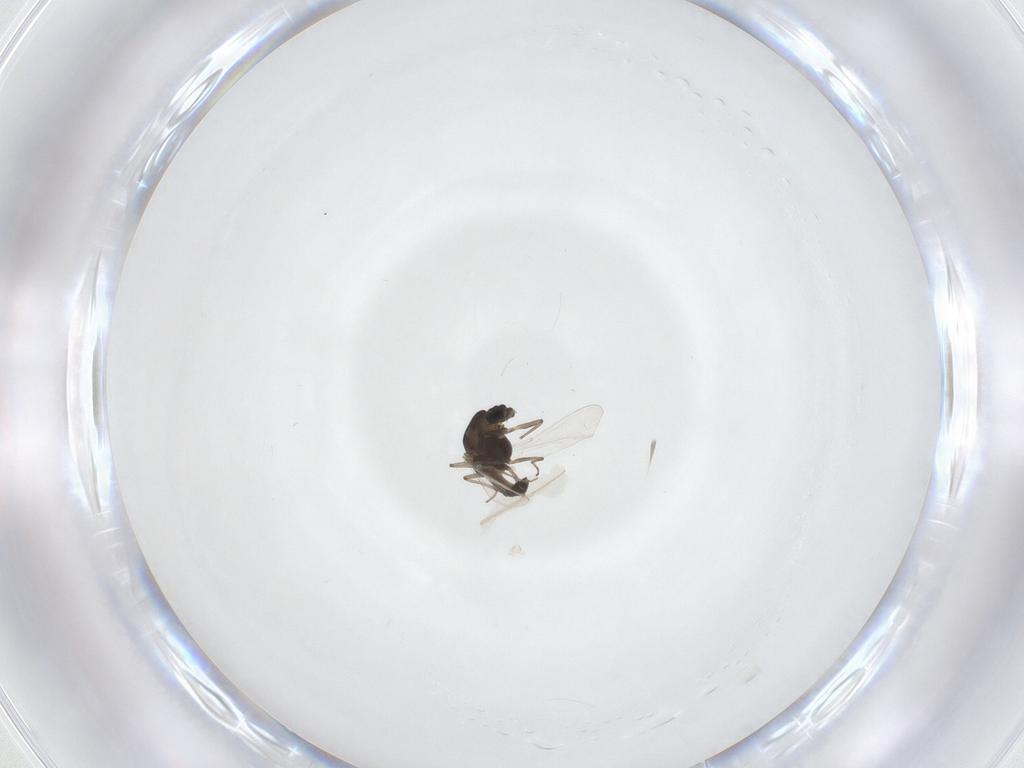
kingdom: Animalia
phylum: Arthropoda
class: Insecta
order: Diptera
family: Chironomidae
